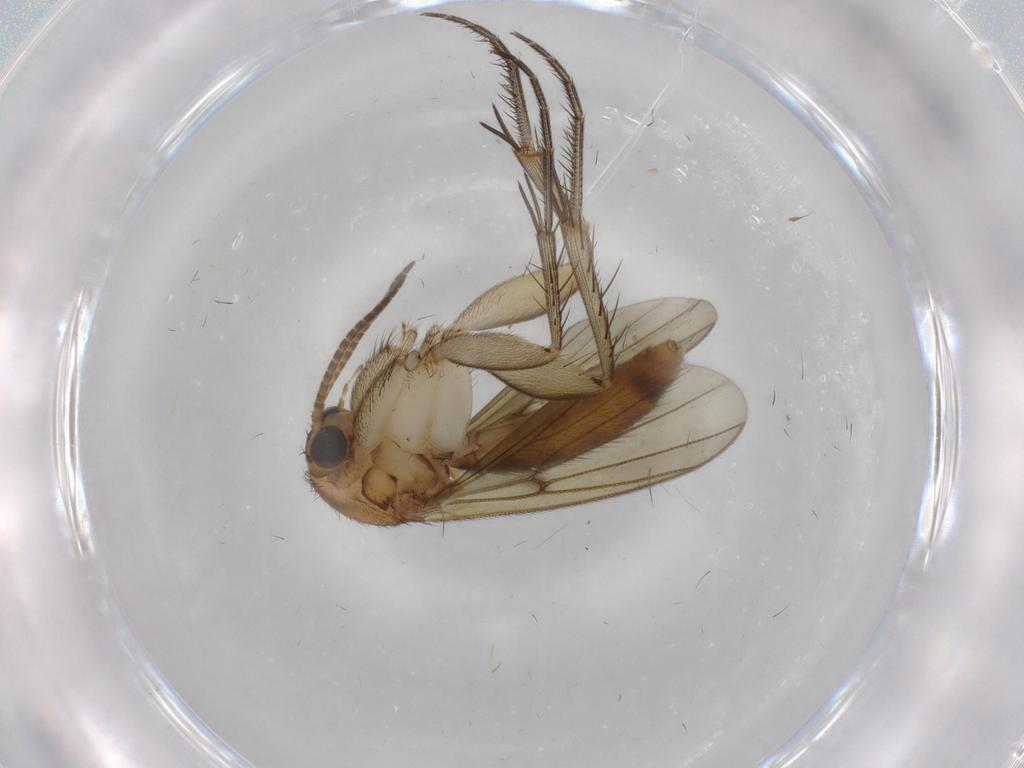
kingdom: Animalia
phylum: Arthropoda
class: Insecta
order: Diptera
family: Mycetophilidae
